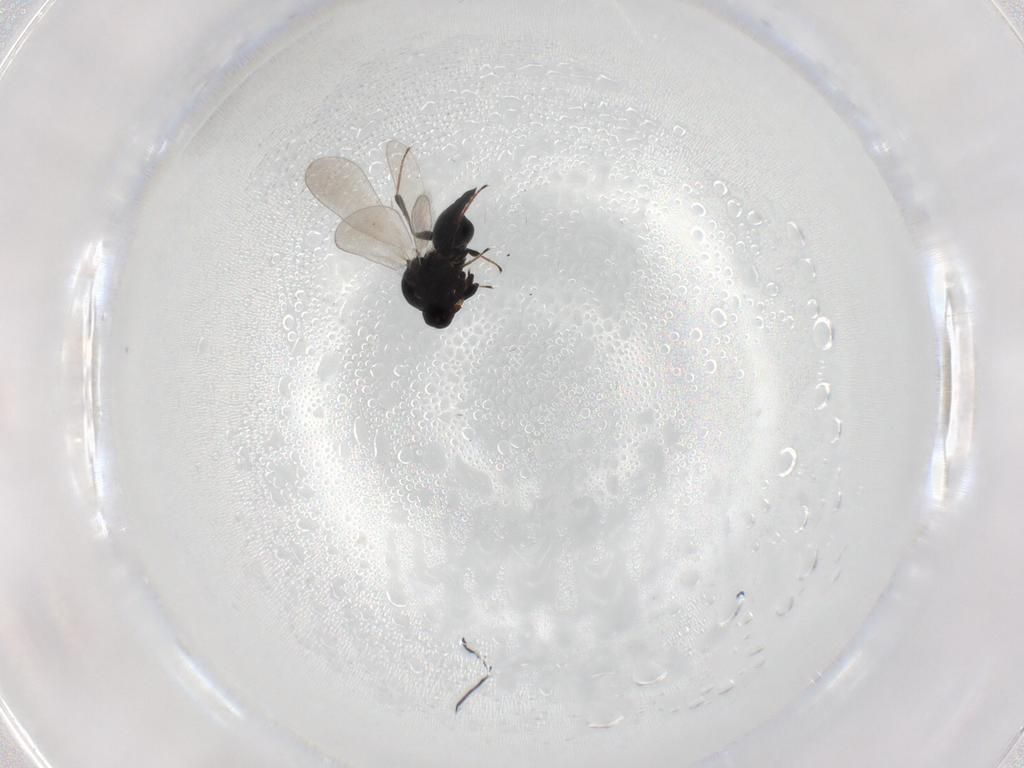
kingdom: Animalia
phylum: Arthropoda
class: Insecta
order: Hymenoptera
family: Platygastridae
